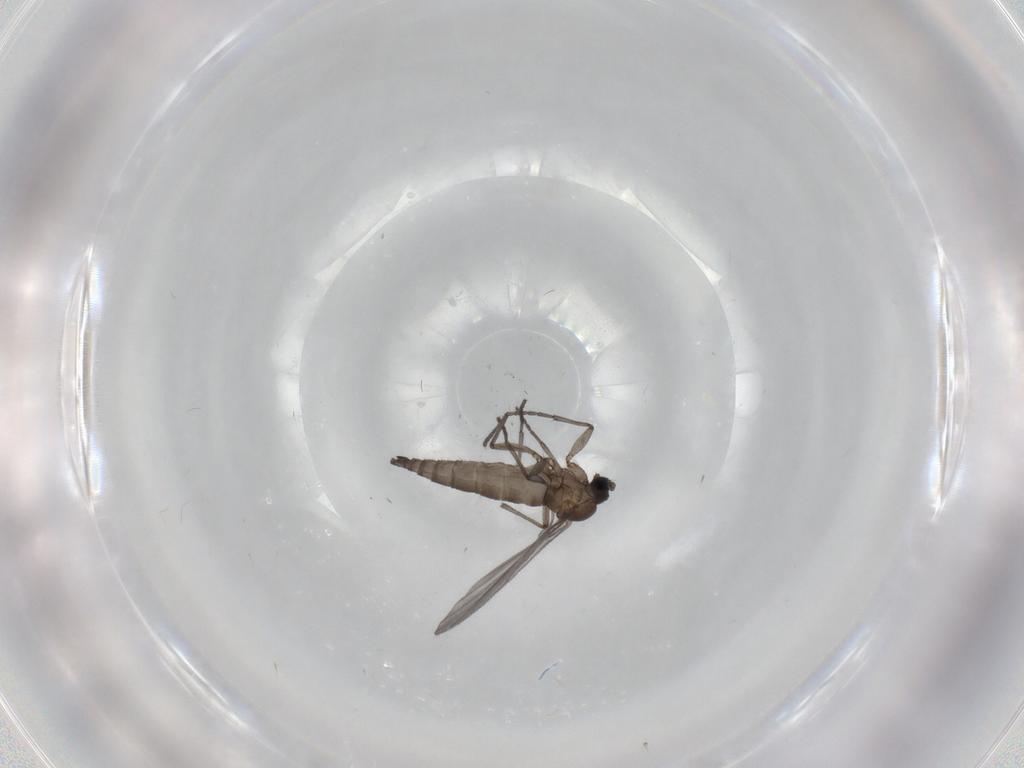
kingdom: Animalia
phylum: Arthropoda
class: Insecta
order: Diptera
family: Sciaridae
